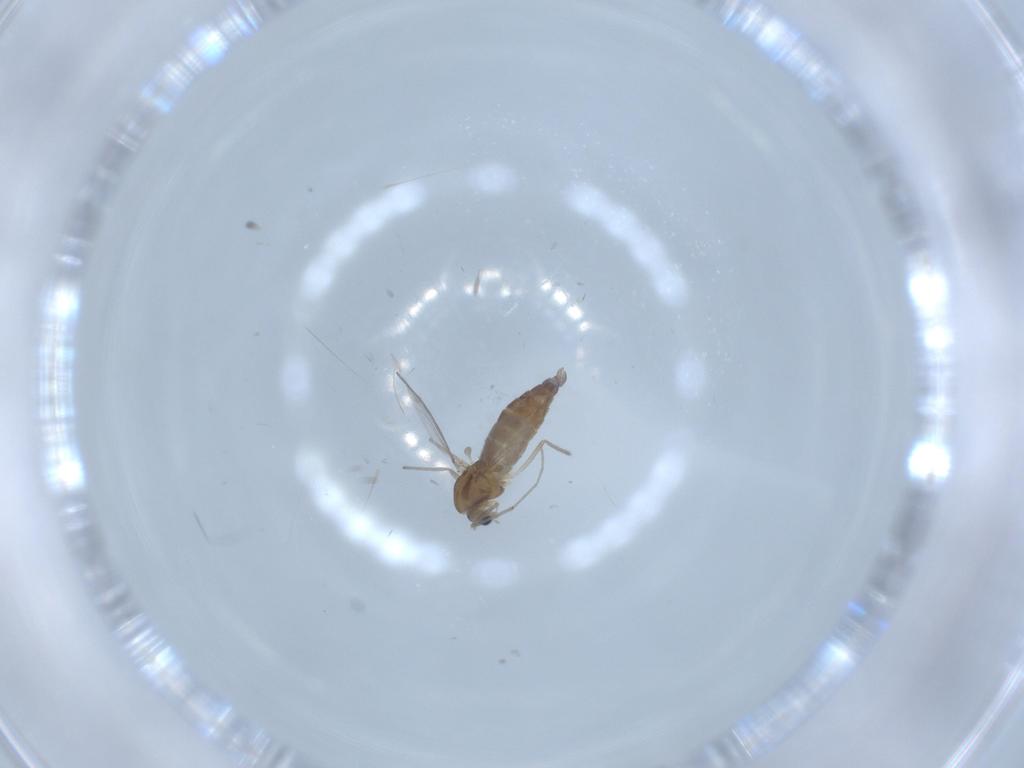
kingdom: Animalia
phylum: Arthropoda
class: Insecta
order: Diptera
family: Chironomidae
